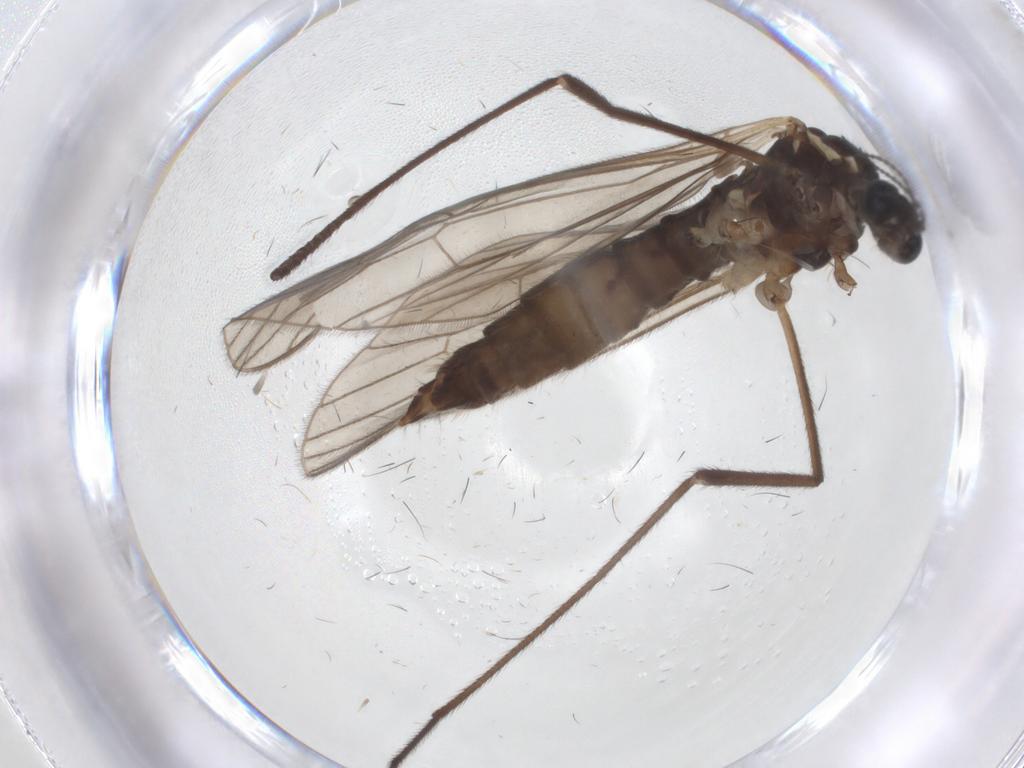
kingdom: Animalia
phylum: Arthropoda
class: Insecta
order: Diptera
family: Limoniidae
